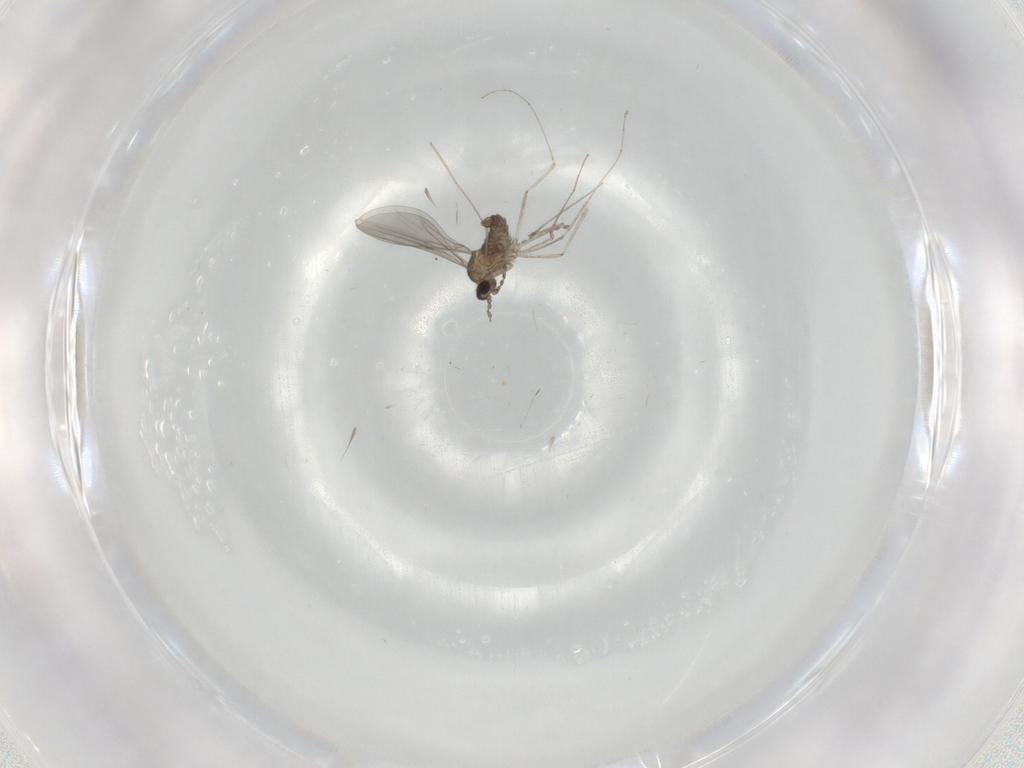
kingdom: Animalia
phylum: Arthropoda
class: Insecta
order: Diptera
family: Cecidomyiidae
